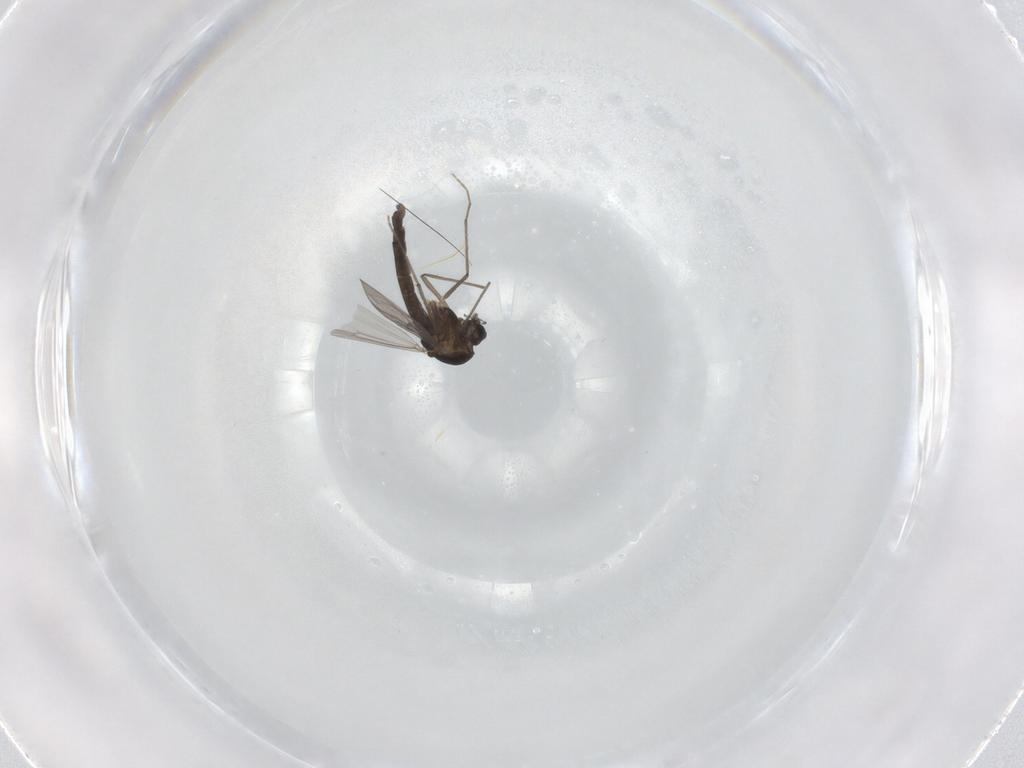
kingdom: Animalia
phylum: Arthropoda
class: Insecta
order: Diptera
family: Chironomidae
